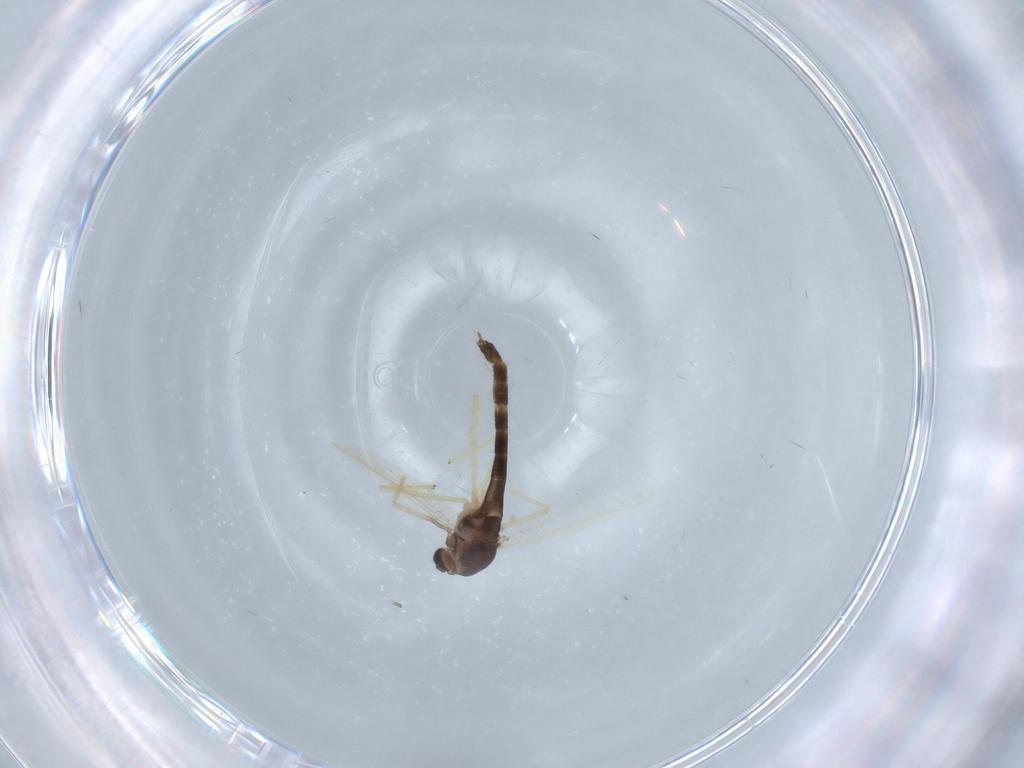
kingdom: Animalia
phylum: Arthropoda
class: Insecta
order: Diptera
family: Chironomidae
